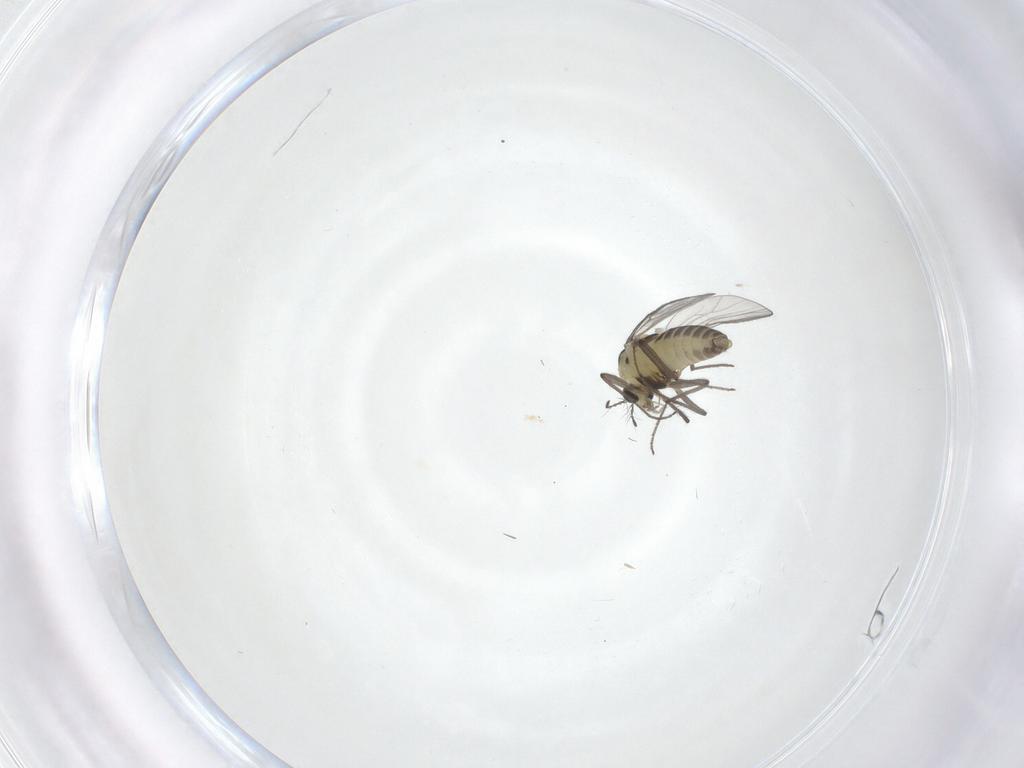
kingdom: Animalia
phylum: Arthropoda
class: Insecta
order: Diptera
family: Chironomidae
